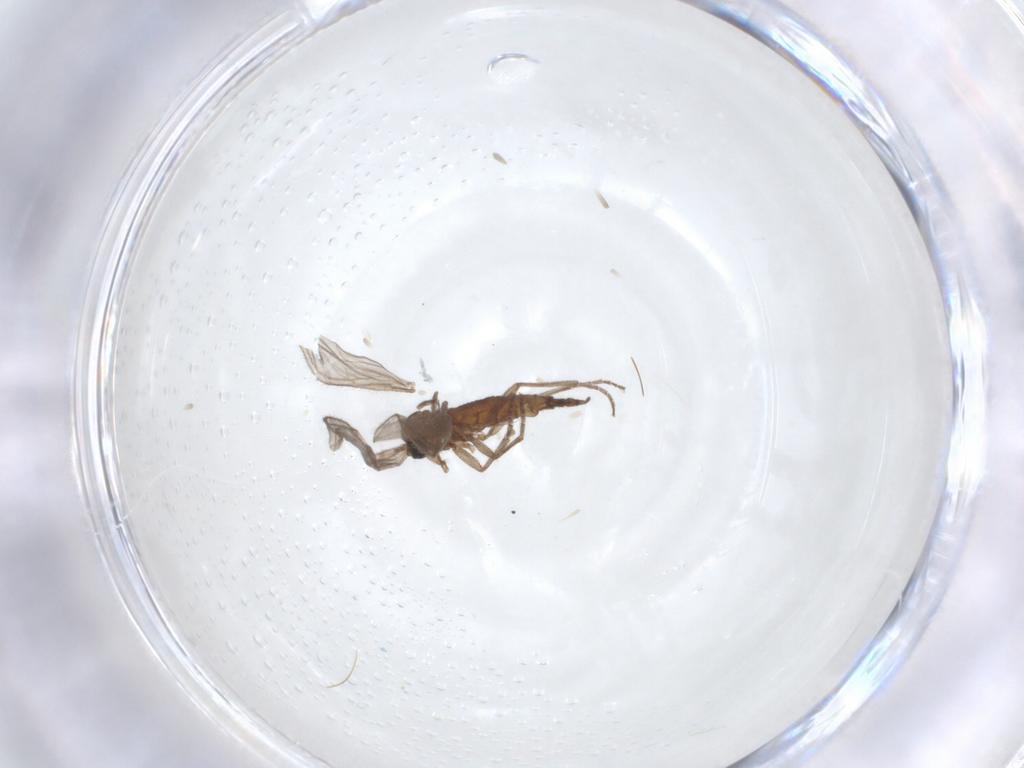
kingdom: Animalia
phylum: Arthropoda
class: Insecta
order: Diptera
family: Sciaridae
